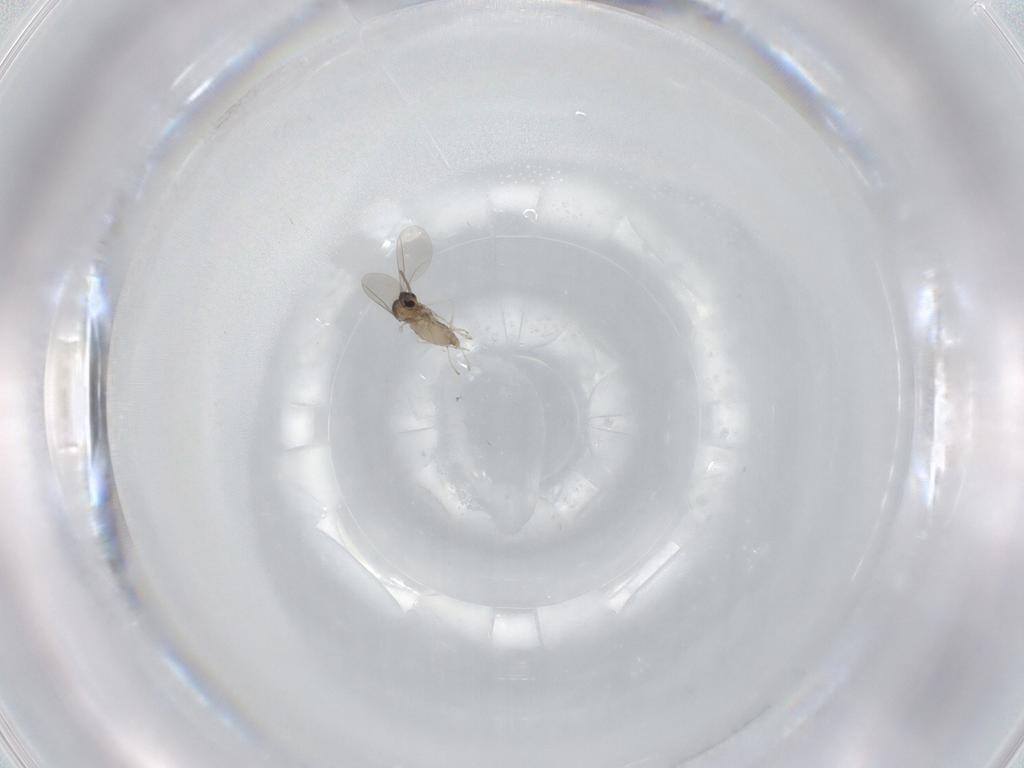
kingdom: Animalia
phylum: Arthropoda
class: Insecta
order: Diptera
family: Cecidomyiidae
